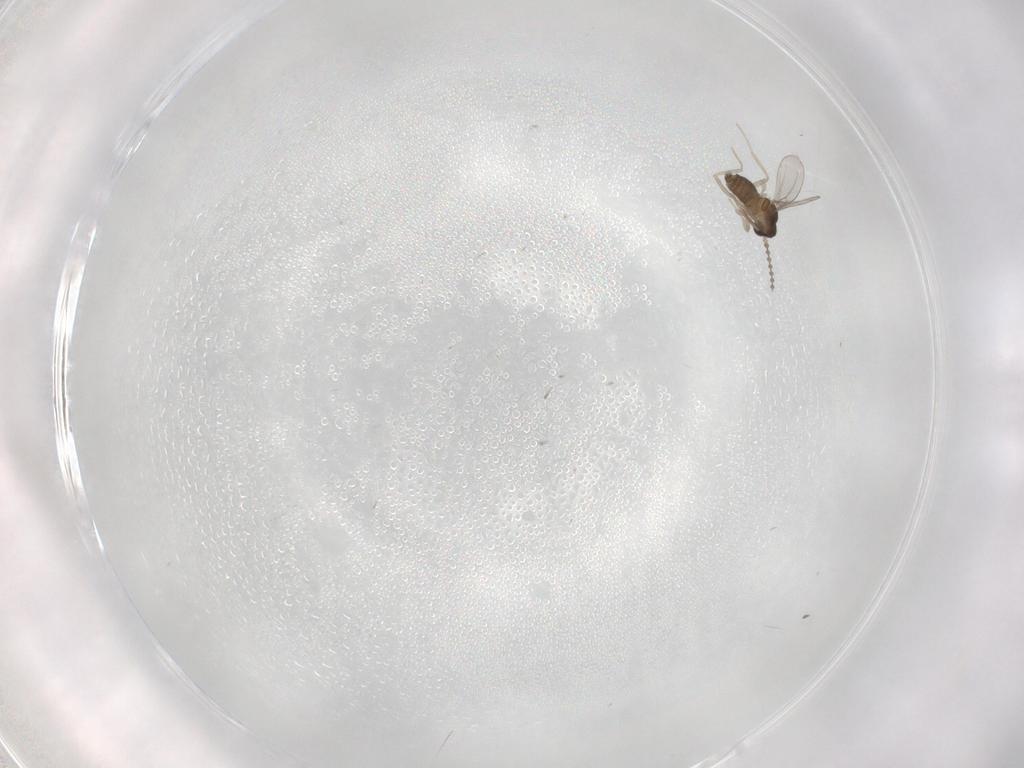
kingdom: Animalia
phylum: Arthropoda
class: Insecta
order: Diptera
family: Cecidomyiidae
